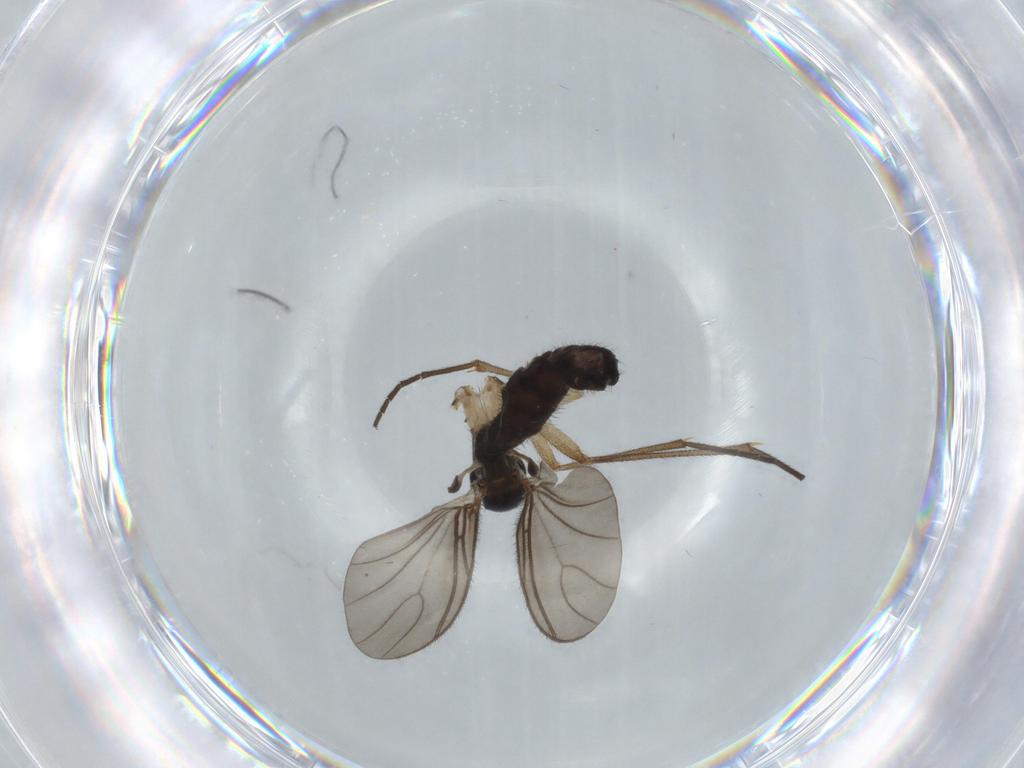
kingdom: Animalia
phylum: Arthropoda
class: Insecta
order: Diptera
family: Sciaridae
